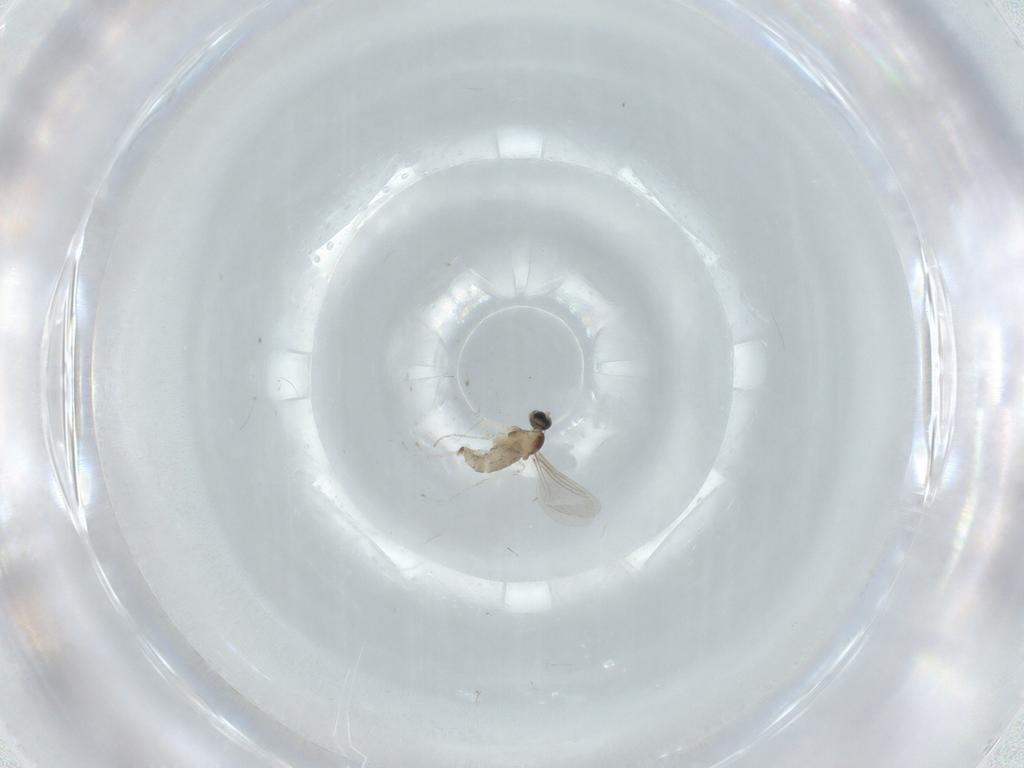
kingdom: Animalia
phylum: Arthropoda
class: Insecta
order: Diptera
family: Cecidomyiidae
